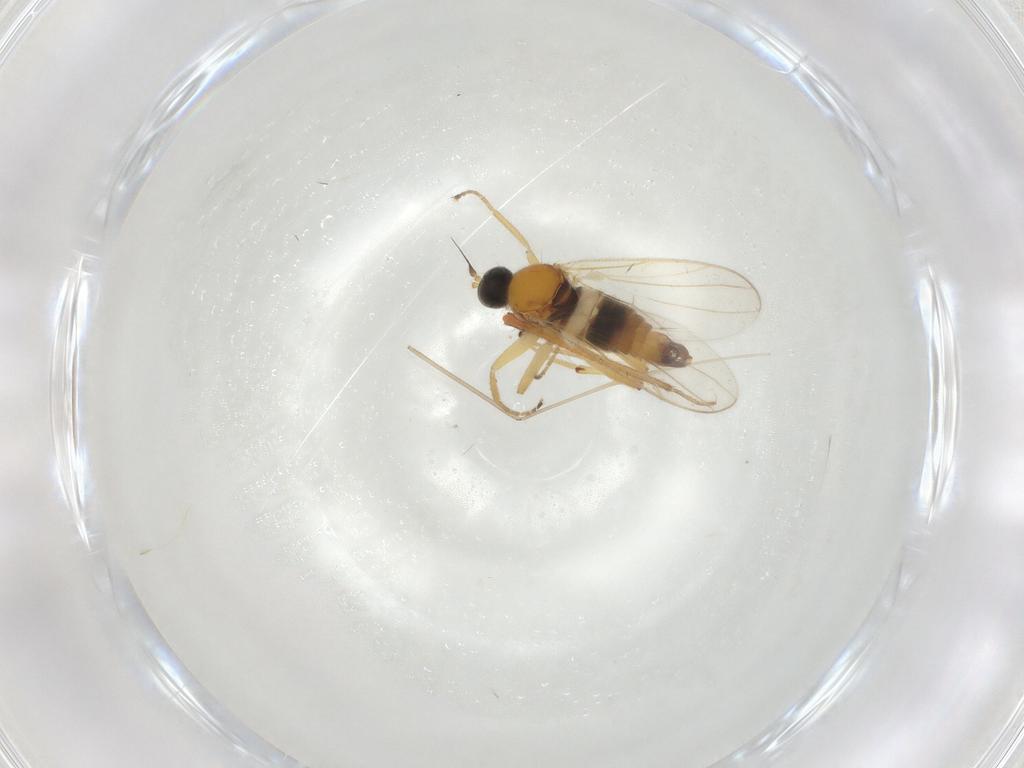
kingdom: Animalia
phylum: Arthropoda
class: Insecta
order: Diptera
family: Hybotidae
